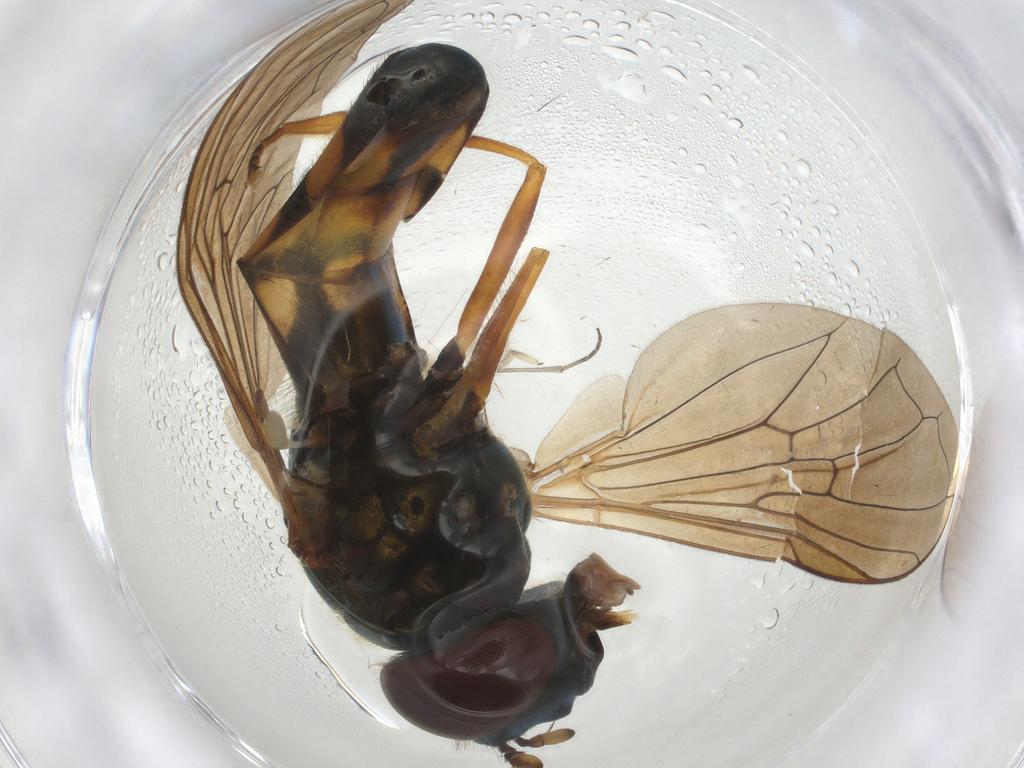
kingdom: Animalia
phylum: Arthropoda
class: Insecta
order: Diptera
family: Syrphidae
